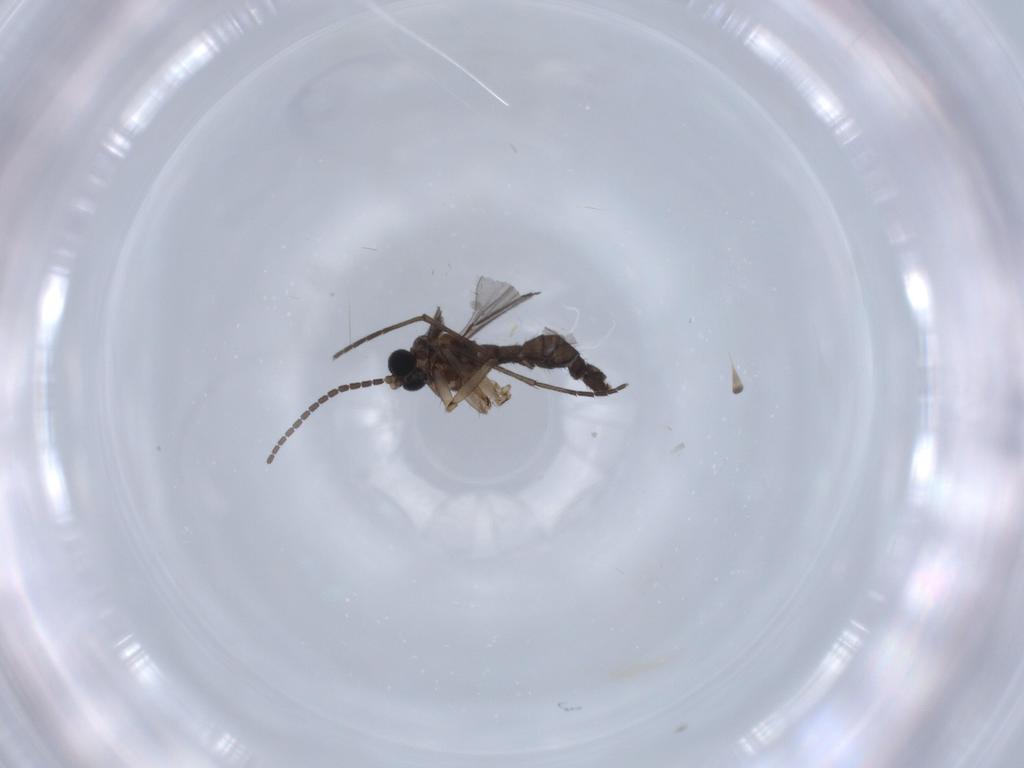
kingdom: Animalia
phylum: Arthropoda
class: Insecta
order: Diptera
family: Sciaridae
